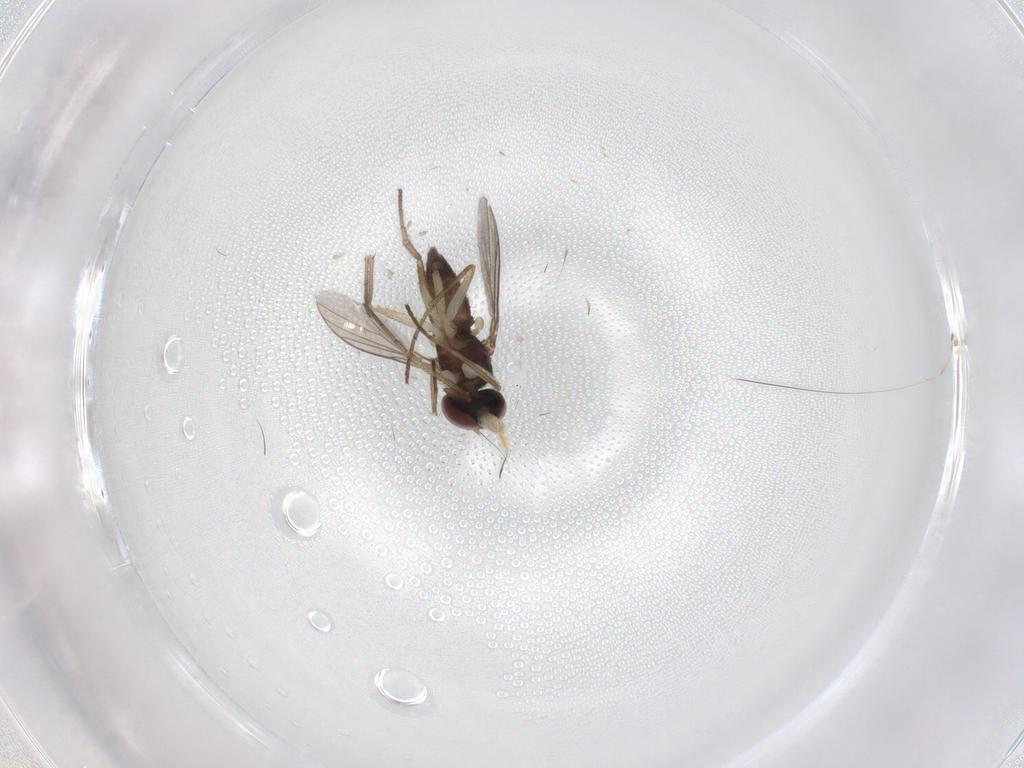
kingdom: Animalia
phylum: Arthropoda
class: Insecta
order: Diptera
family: Dolichopodidae
